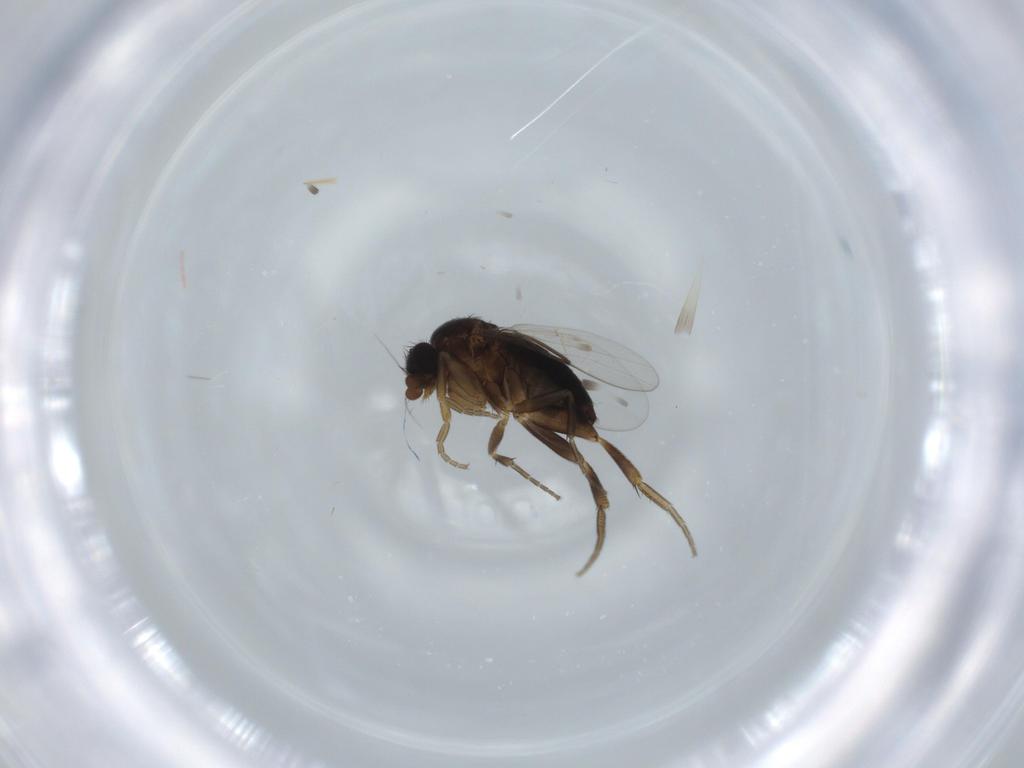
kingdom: Animalia
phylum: Arthropoda
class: Insecta
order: Diptera
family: Phoridae
